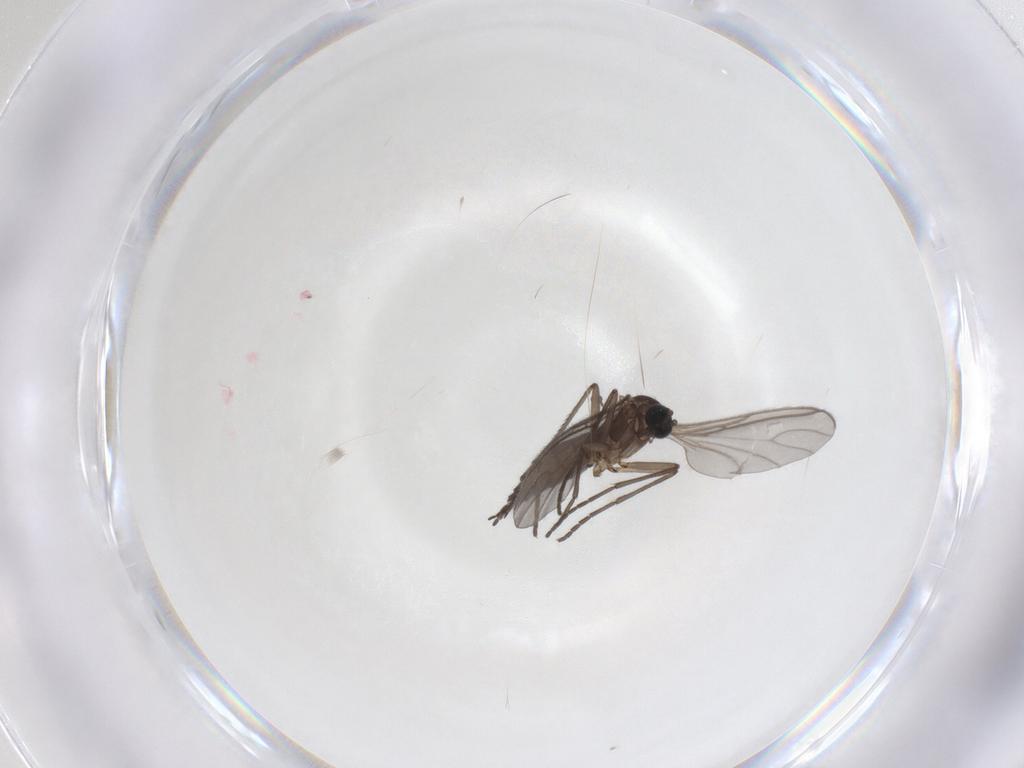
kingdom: Animalia
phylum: Arthropoda
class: Insecta
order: Diptera
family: Sciaridae
